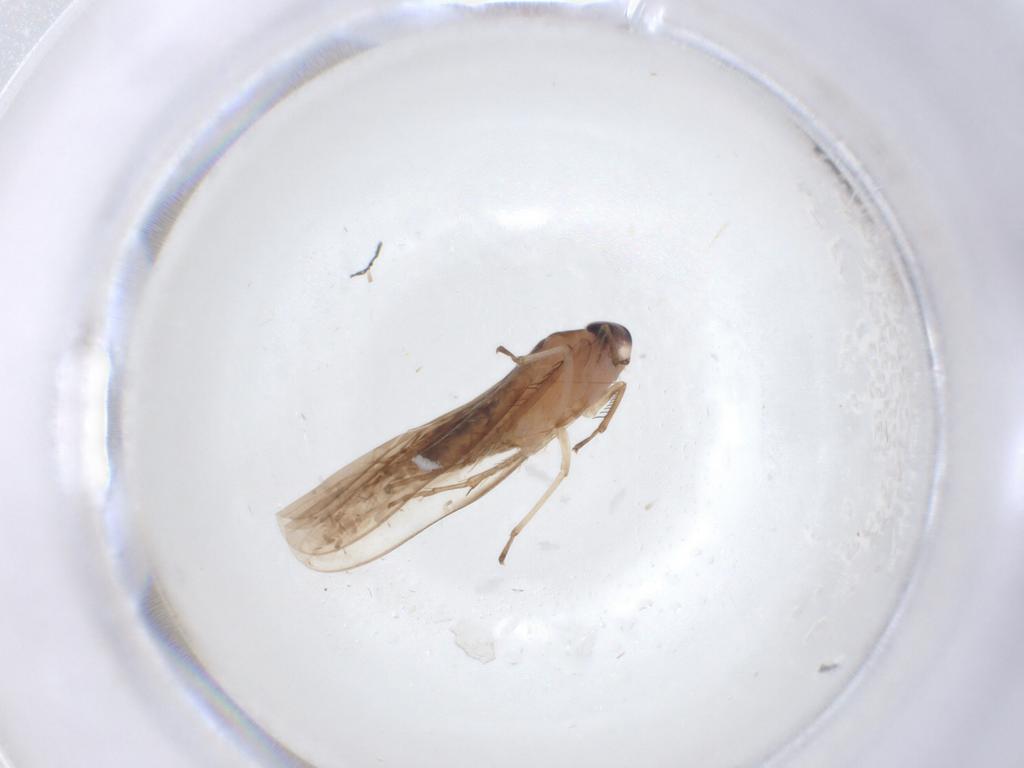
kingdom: Animalia
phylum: Arthropoda
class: Insecta
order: Hemiptera
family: Cicadellidae
